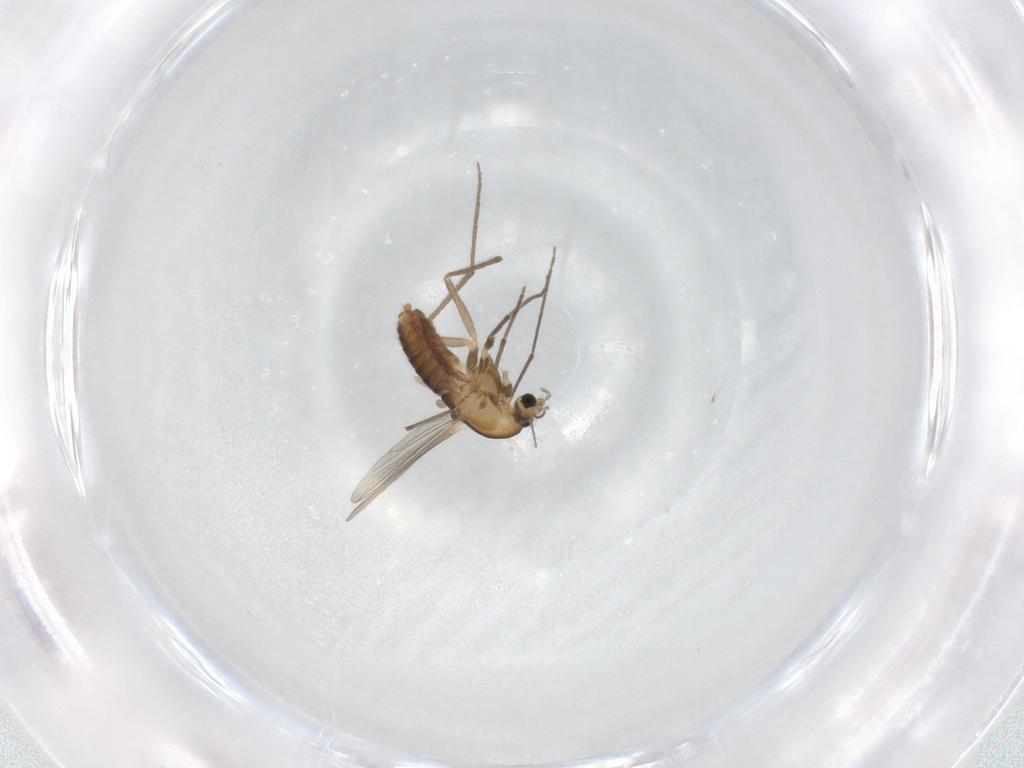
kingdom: Animalia
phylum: Arthropoda
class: Insecta
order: Diptera
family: Chironomidae
